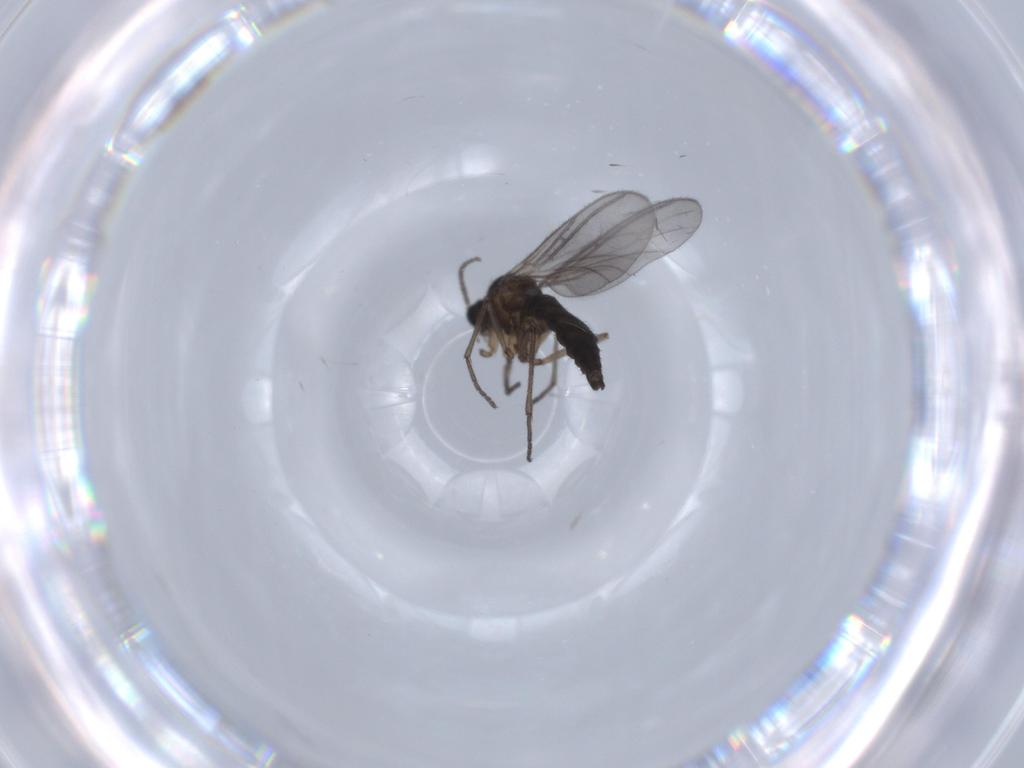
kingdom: Animalia
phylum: Arthropoda
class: Insecta
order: Diptera
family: Sciaridae
